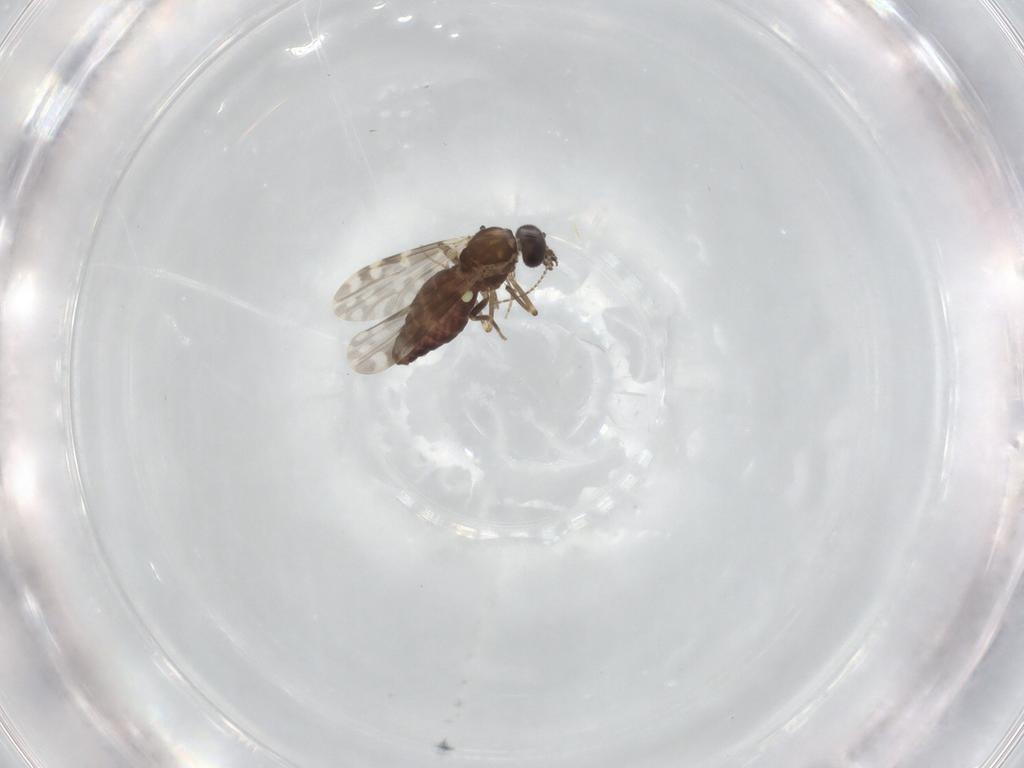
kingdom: Animalia
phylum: Arthropoda
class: Insecta
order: Diptera
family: Ceratopogonidae
